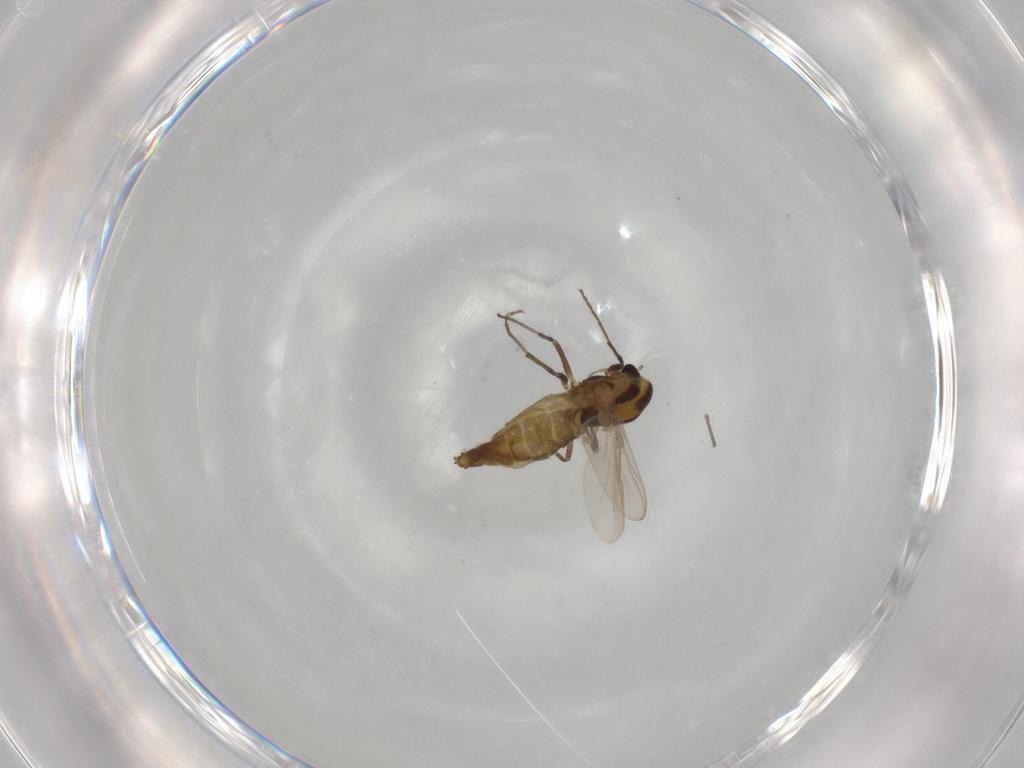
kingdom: Animalia
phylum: Arthropoda
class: Insecta
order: Diptera
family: Chironomidae
